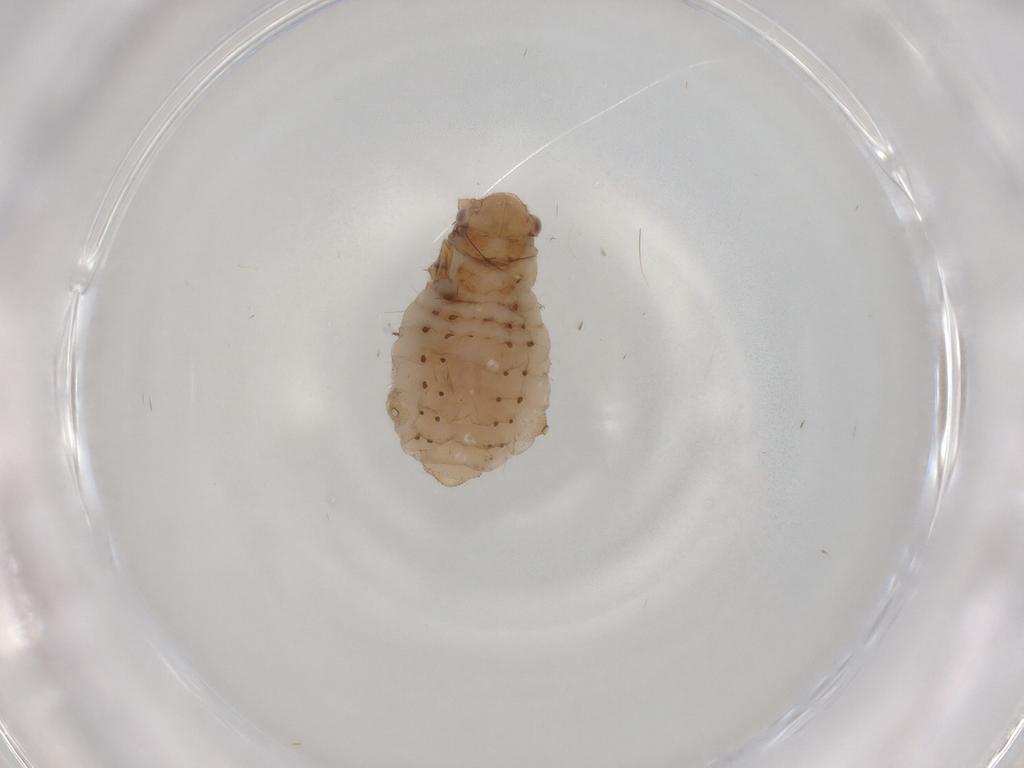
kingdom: Animalia
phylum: Arthropoda
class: Insecta
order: Hemiptera
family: Aphididae
